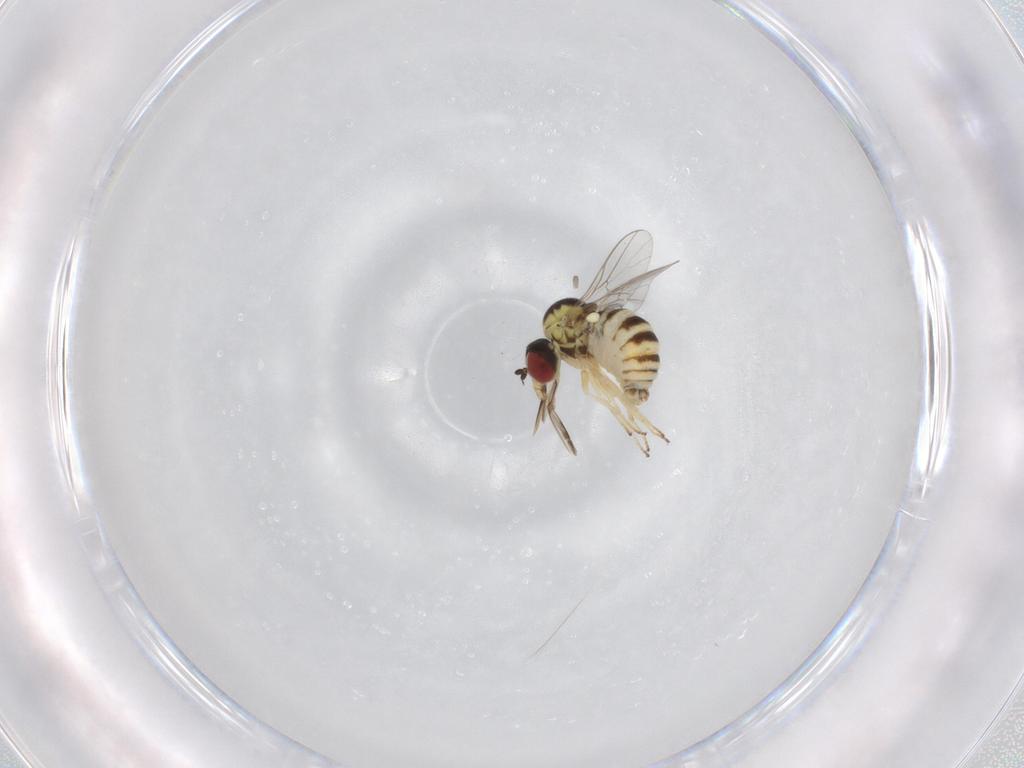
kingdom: Animalia
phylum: Arthropoda
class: Insecta
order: Diptera
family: Bombyliidae
